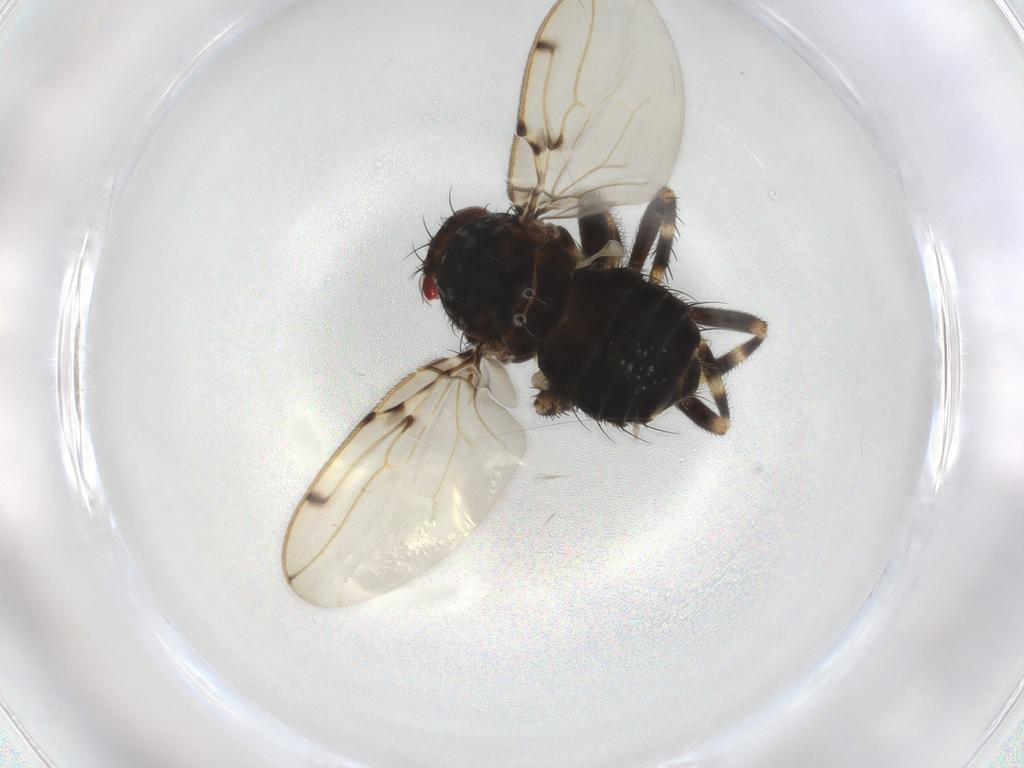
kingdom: Animalia
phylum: Arthropoda
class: Insecta
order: Diptera
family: Sphaeroceridae
